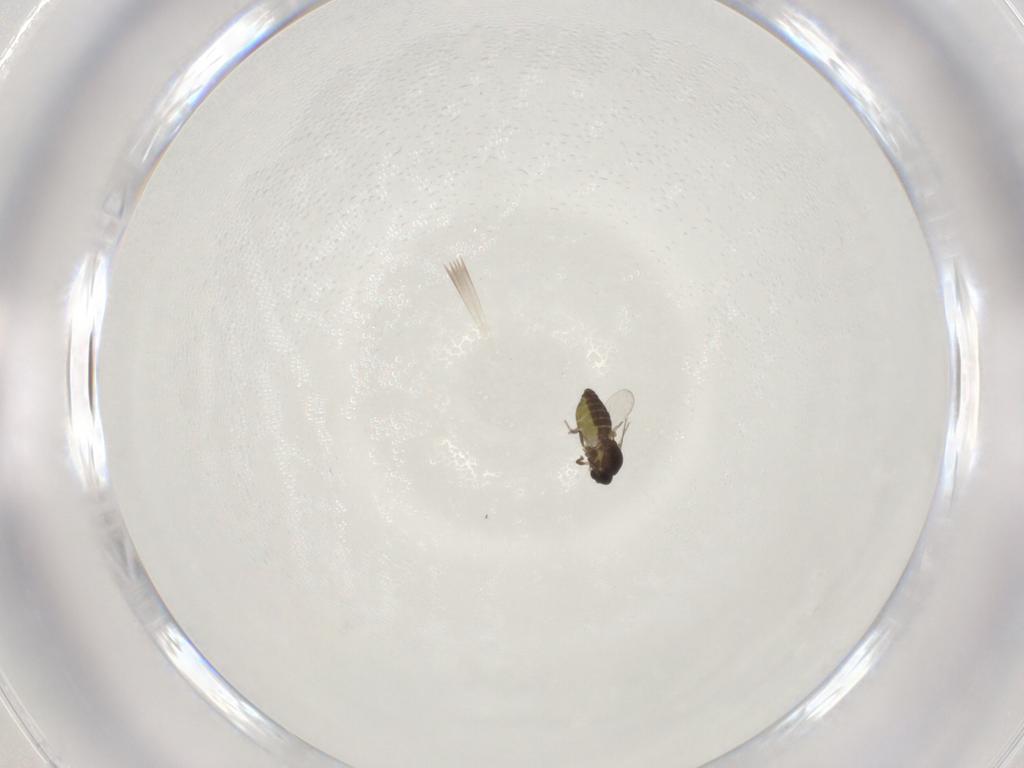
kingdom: Animalia
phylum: Arthropoda
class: Insecta
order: Diptera
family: Ceratopogonidae
